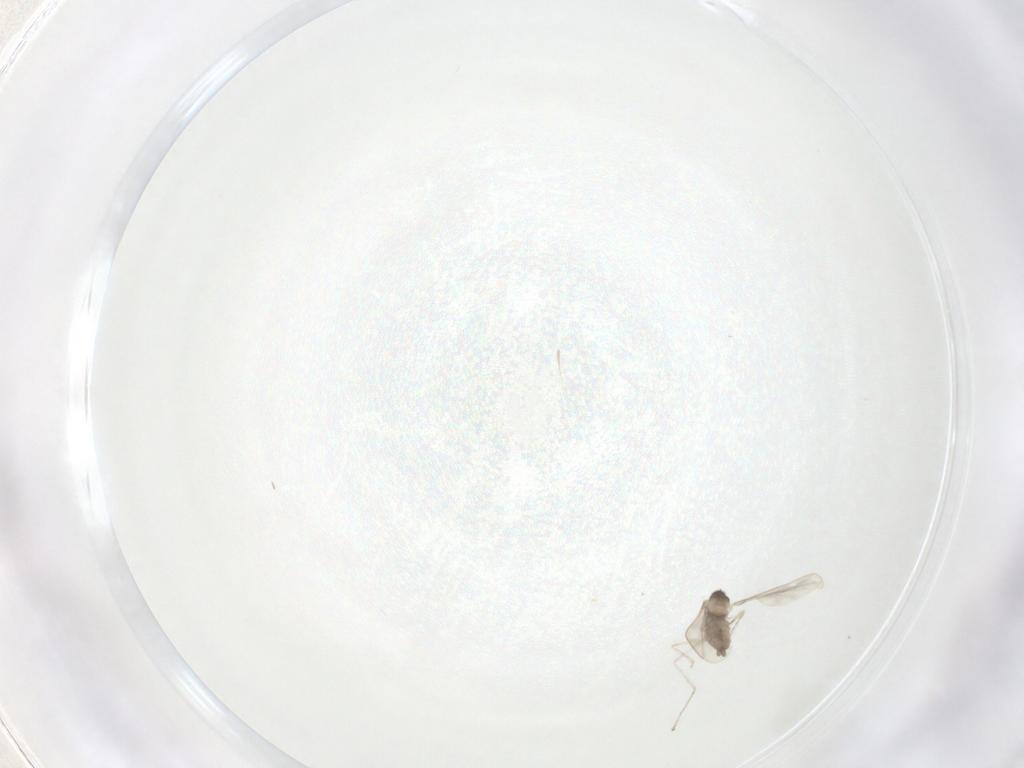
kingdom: Animalia
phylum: Arthropoda
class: Insecta
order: Diptera
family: Cecidomyiidae
